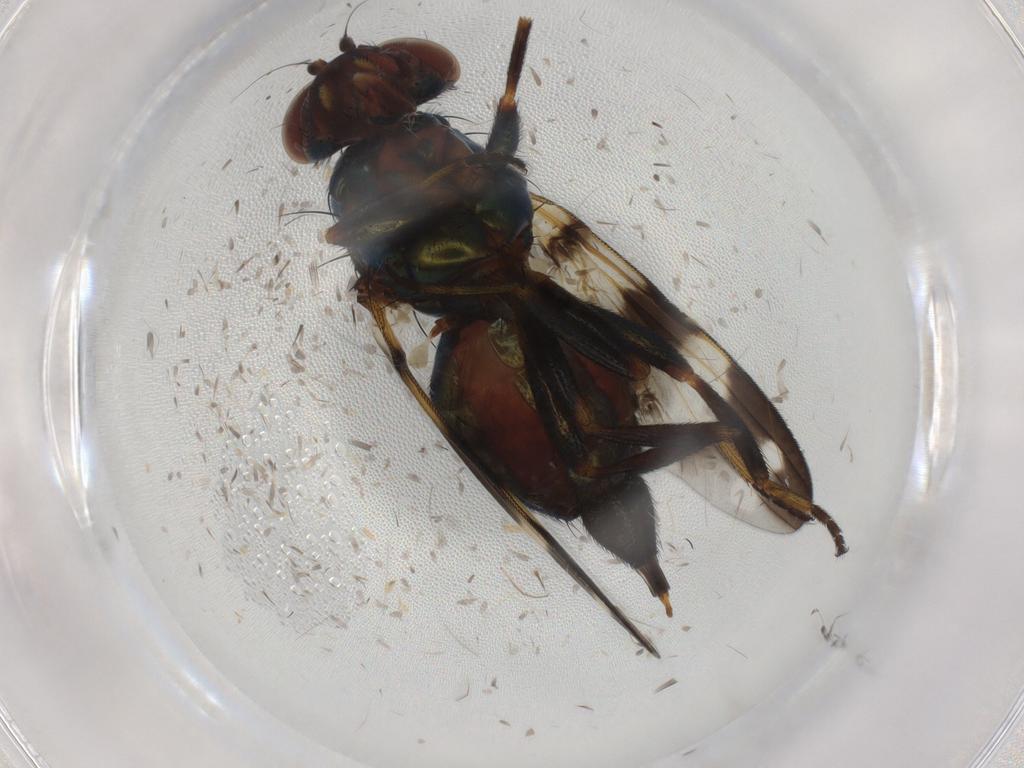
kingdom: Animalia
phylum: Arthropoda
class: Insecta
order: Diptera
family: Ulidiidae
